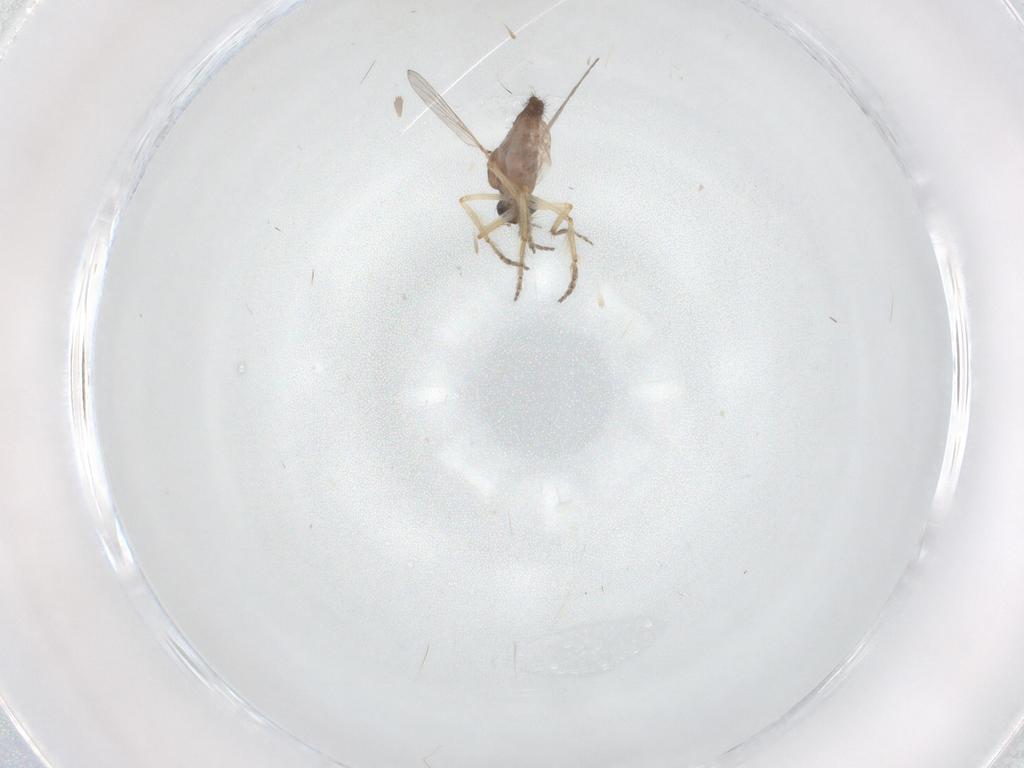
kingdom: Animalia
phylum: Arthropoda
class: Insecta
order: Diptera
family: Ceratopogonidae
